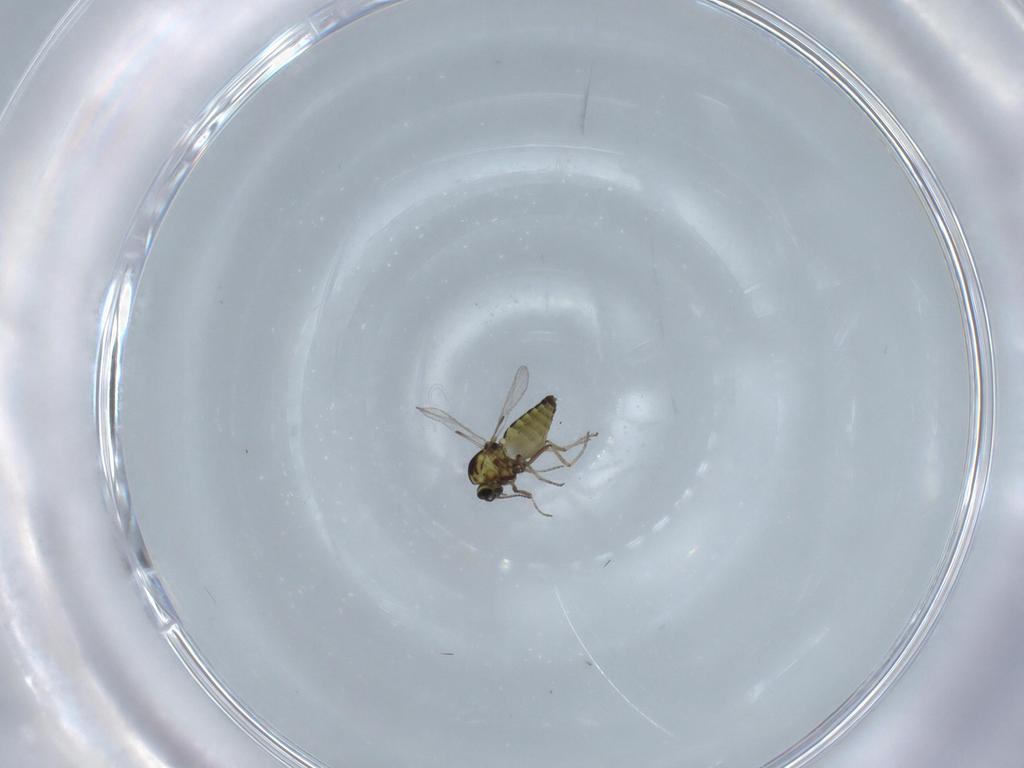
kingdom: Animalia
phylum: Arthropoda
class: Insecta
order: Diptera
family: Ceratopogonidae
